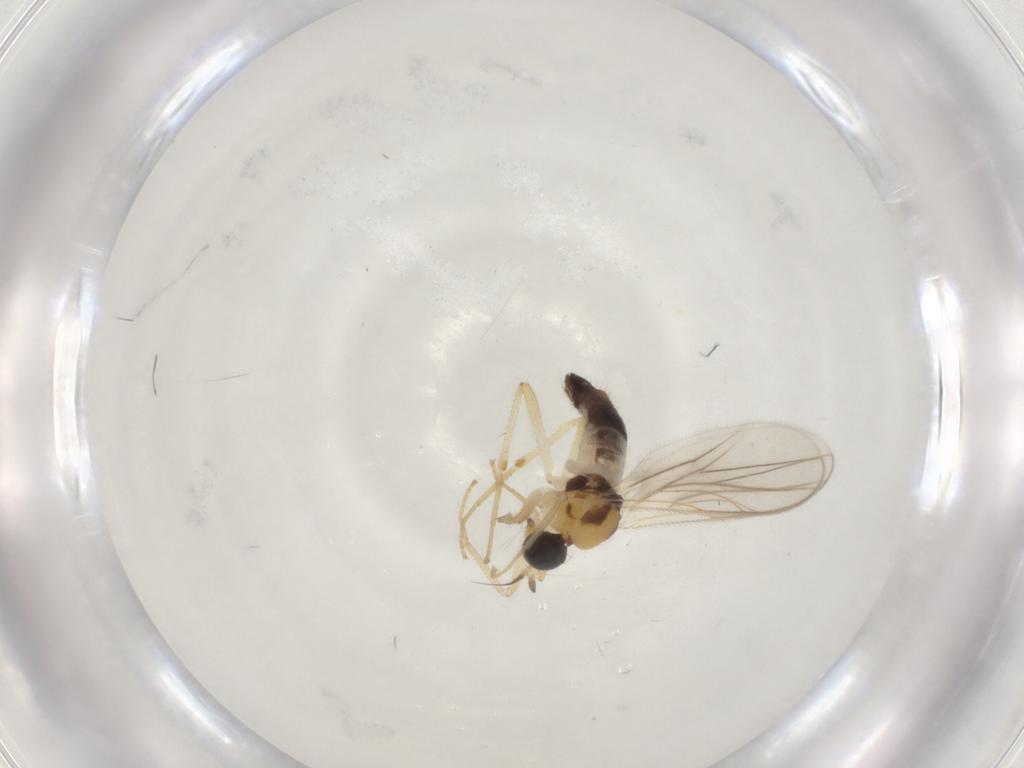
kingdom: Animalia
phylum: Arthropoda
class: Insecta
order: Diptera
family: Hybotidae
